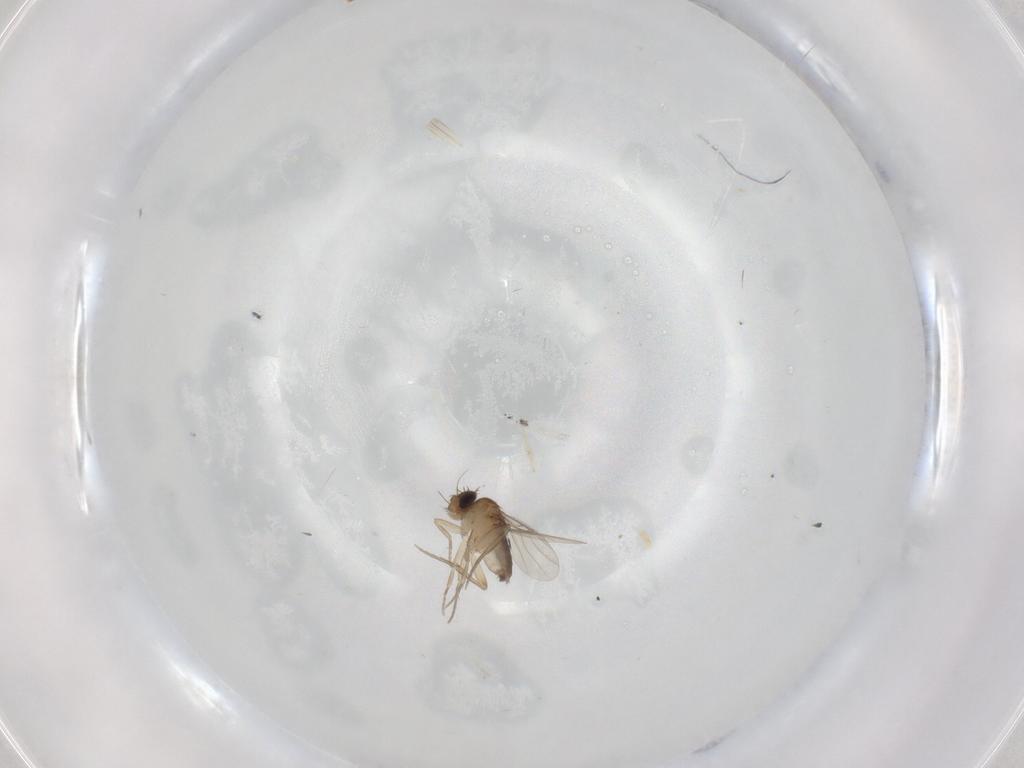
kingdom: Animalia
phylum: Arthropoda
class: Insecta
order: Diptera
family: Phoridae
